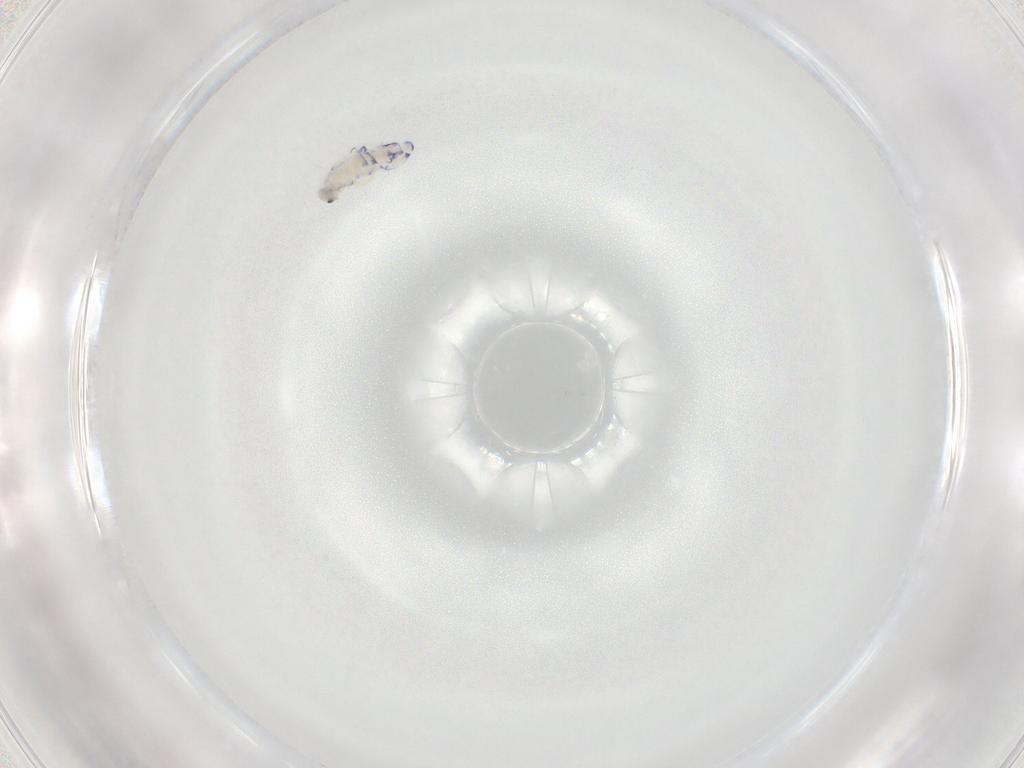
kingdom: Animalia
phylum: Arthropoda
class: Collembola
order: Entomobryomorpha
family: Entomobryidae
